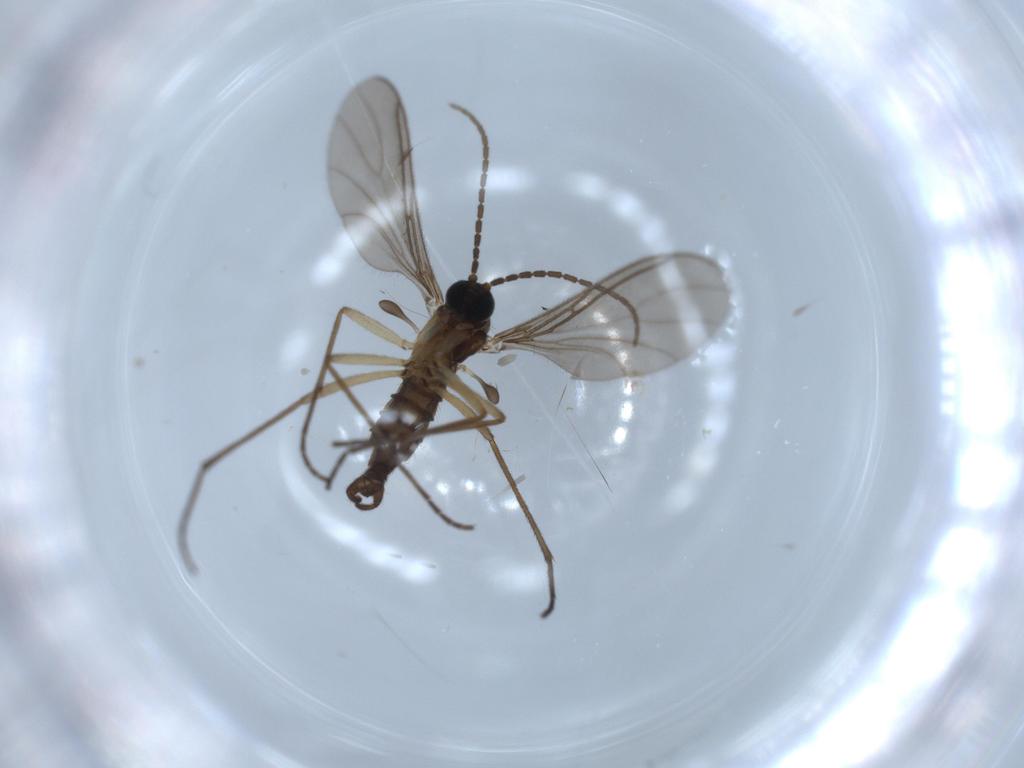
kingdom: Animalia
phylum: Arthropoda
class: Insecta
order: Diptera
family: Sciaridae
